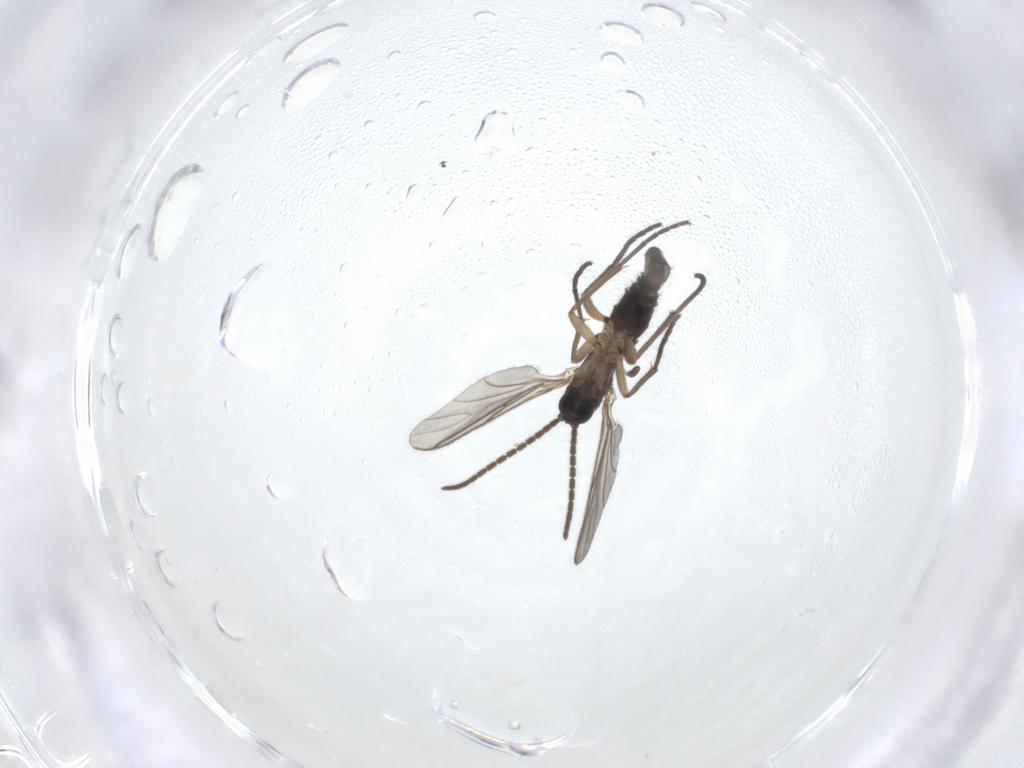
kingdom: Animalia
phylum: Arthropoda
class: Insecta
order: Diptera
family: Sciaridae
